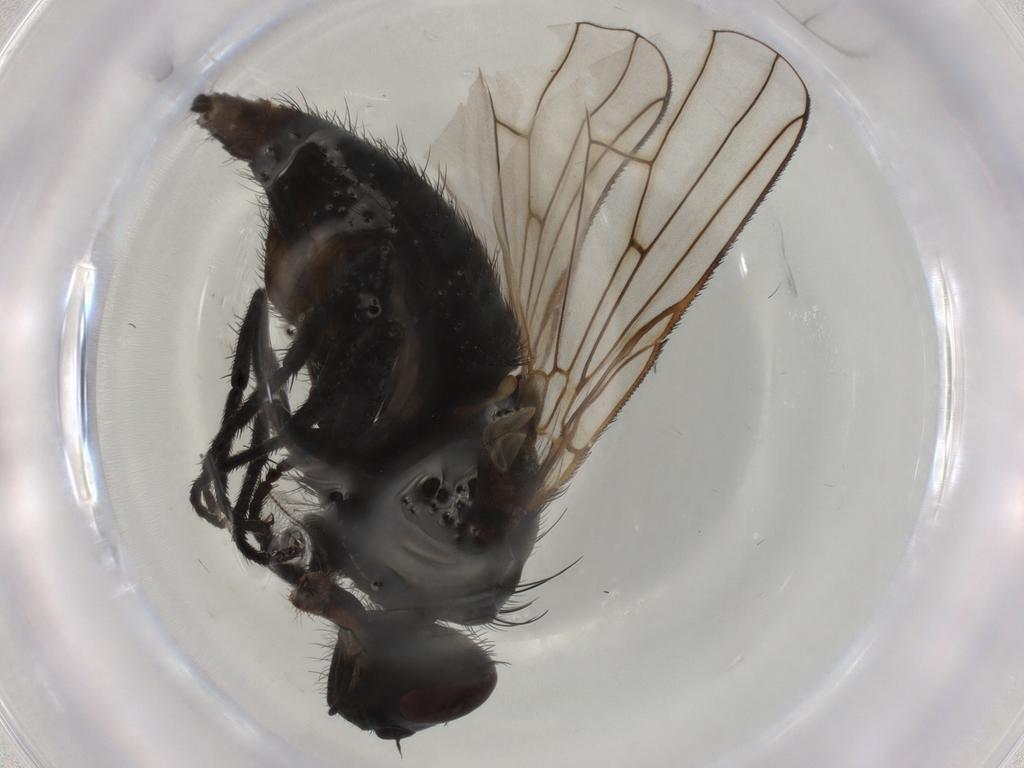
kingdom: Animalia
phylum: Arthropoda
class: Insecta
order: Diptera
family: Muscidae
